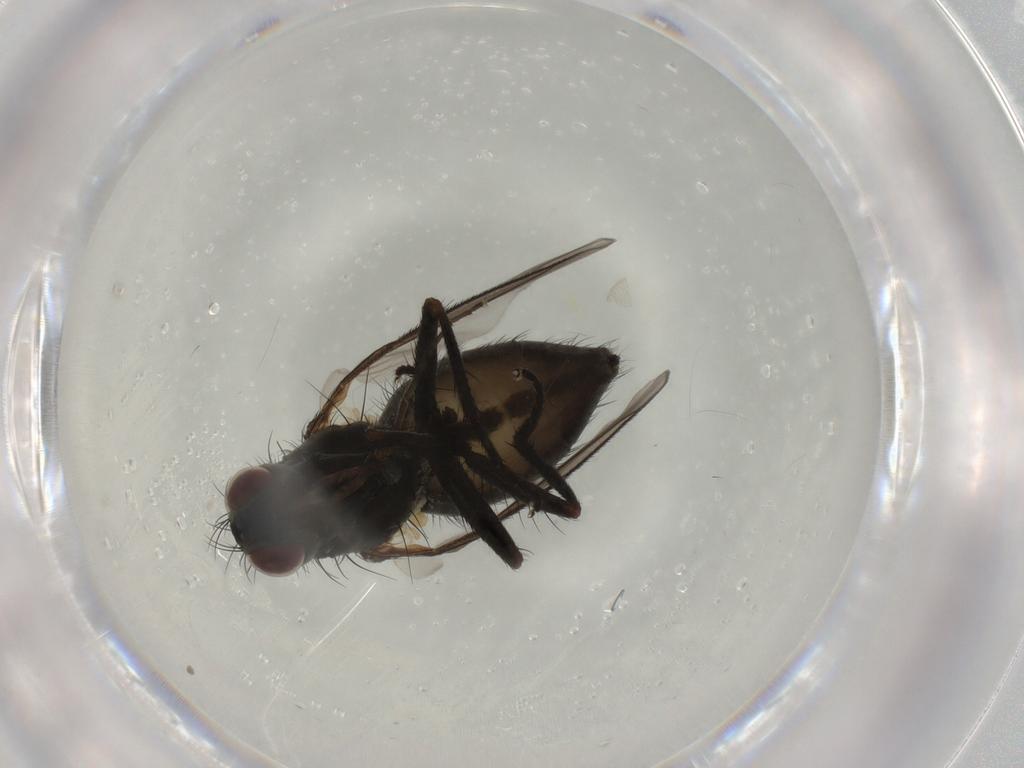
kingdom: Animalia
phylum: Arthropoda
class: Insecta
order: Diptera
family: Muscidae
